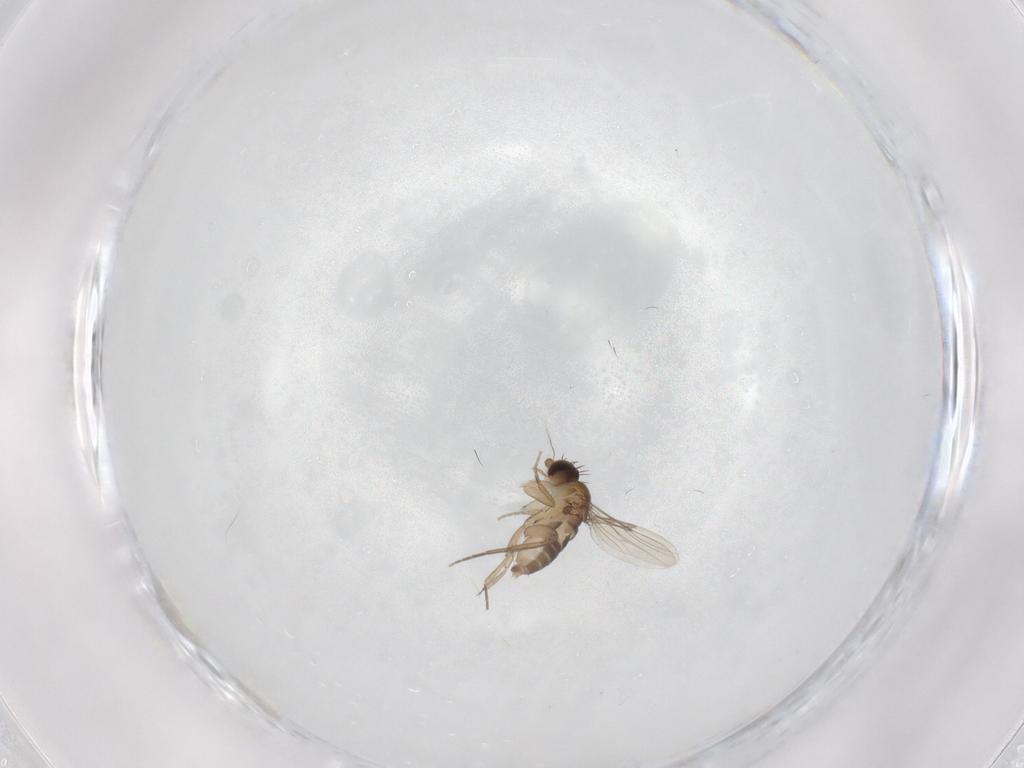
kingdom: Animalia
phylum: Arthropoda
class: Insecta
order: Diptera
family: Phoridae
